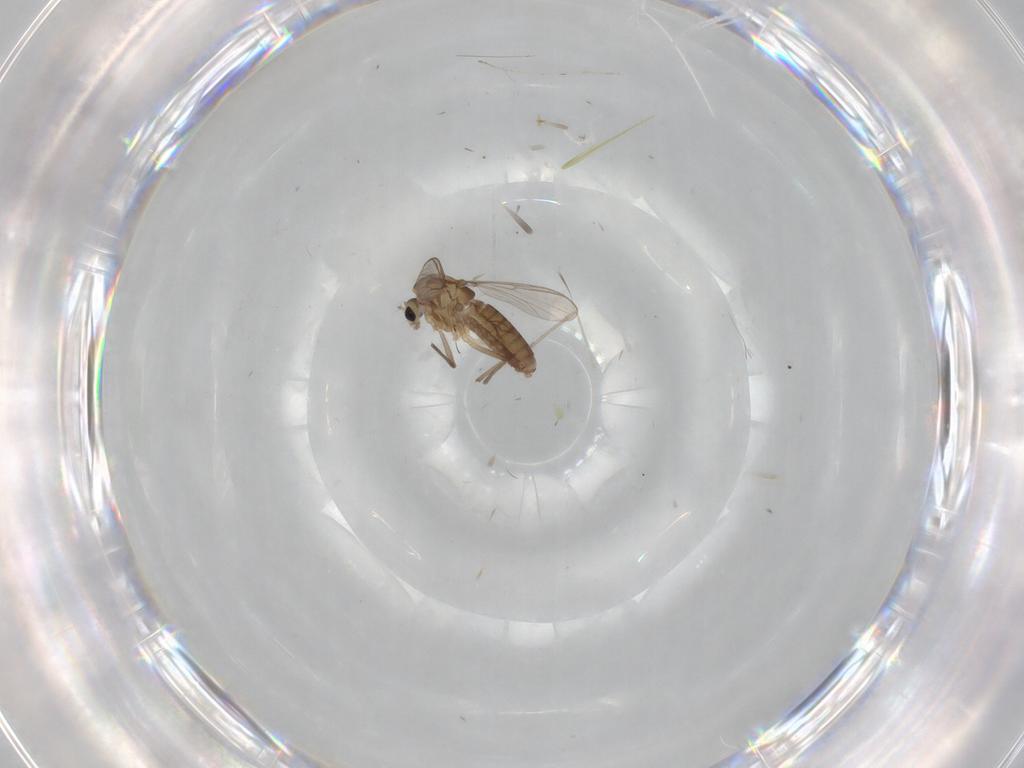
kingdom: Animalia
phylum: Arthropoda
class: Insecta
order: Diptera
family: Chironomidae
